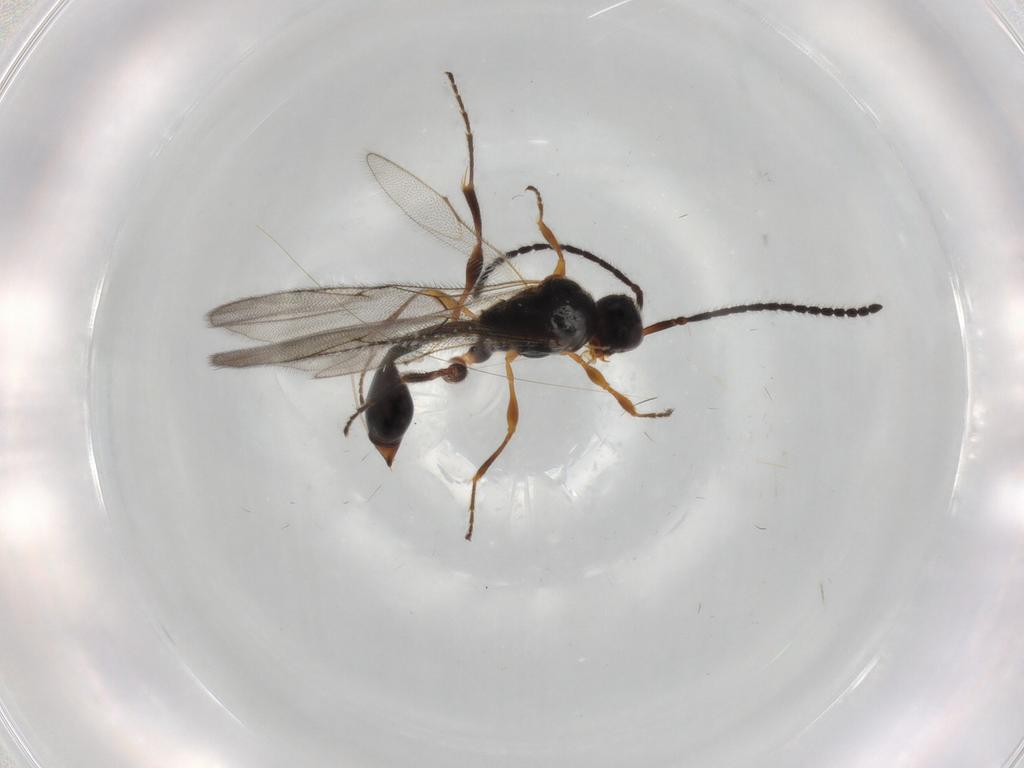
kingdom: Animalia
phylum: Arthropoda
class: Insecta
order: Hymenoptera
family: Diapriidae
